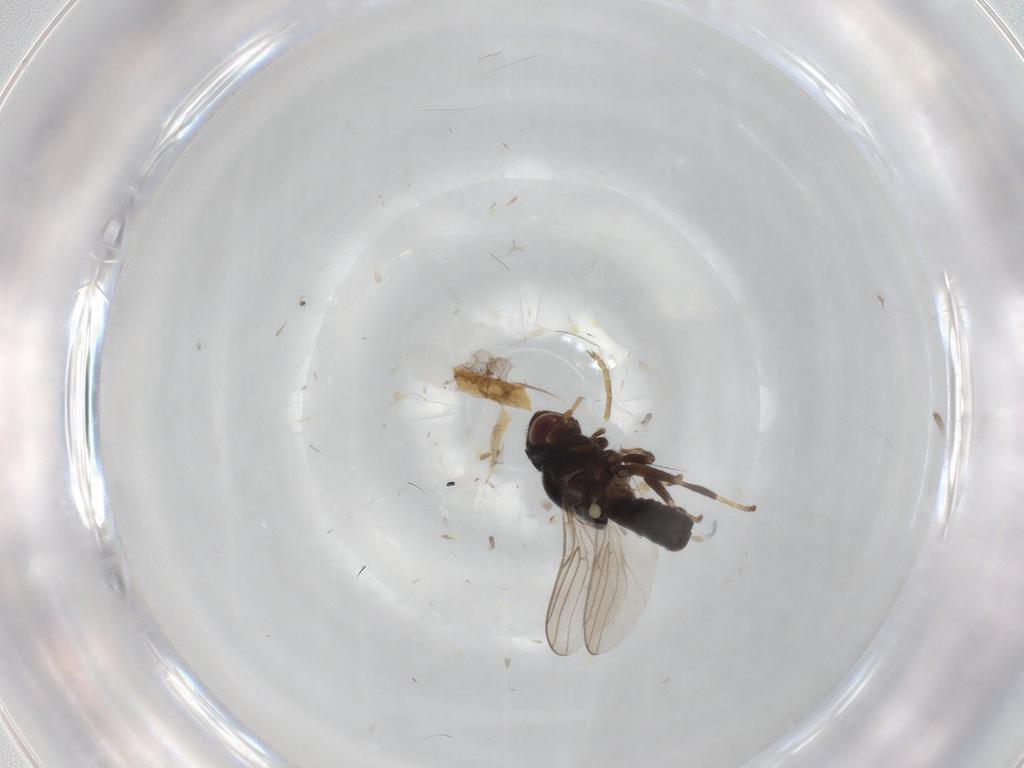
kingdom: Animalia
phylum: Arthropoda
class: Insecta
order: Diptera
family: Muscidae
